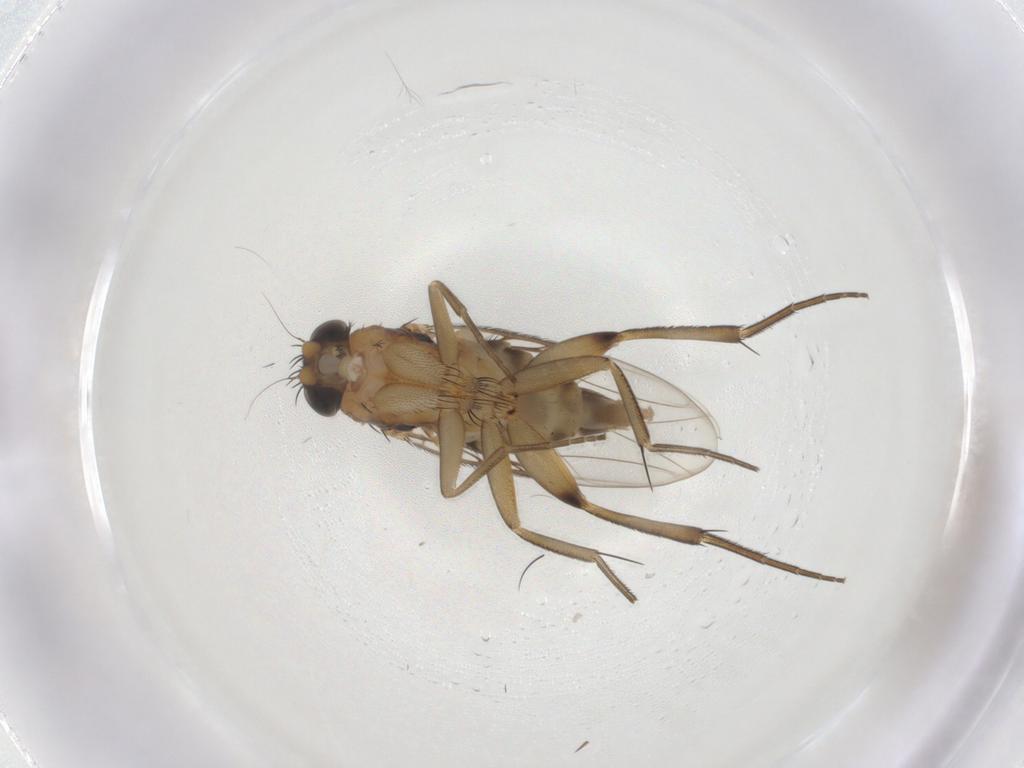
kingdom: Animalia
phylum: Arthropoda
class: Insecta
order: Diptera
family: Phoridae
